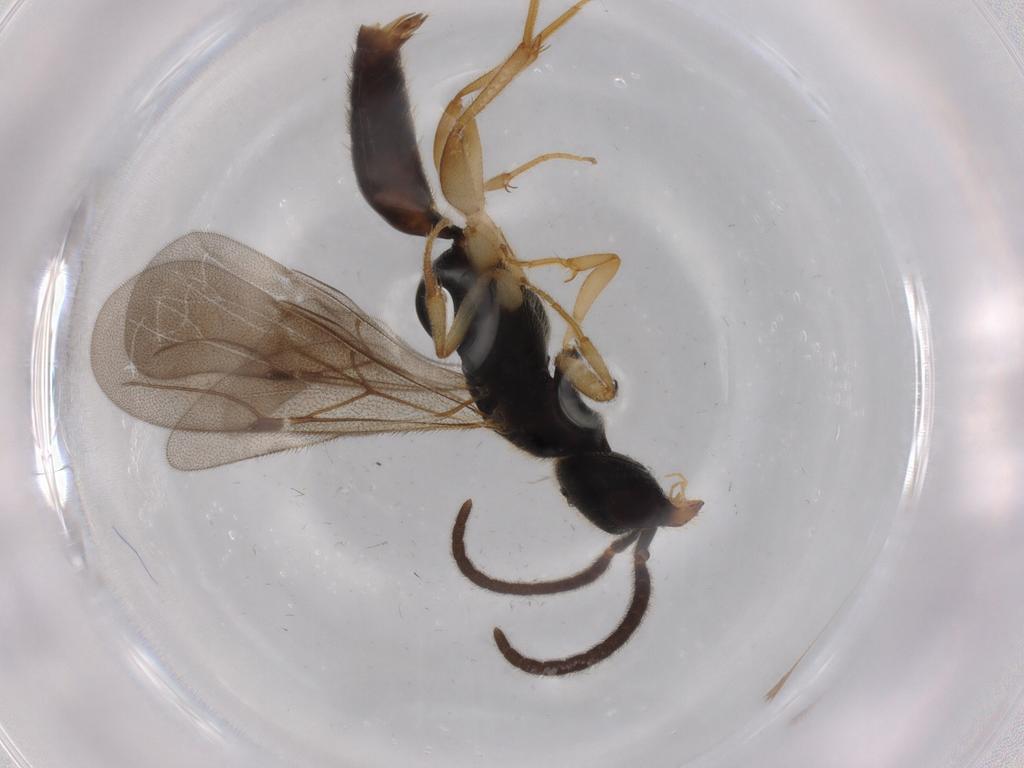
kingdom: Animalia
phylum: Arthropoda
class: Insecta
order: Hymenoptera
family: Bethylidae
